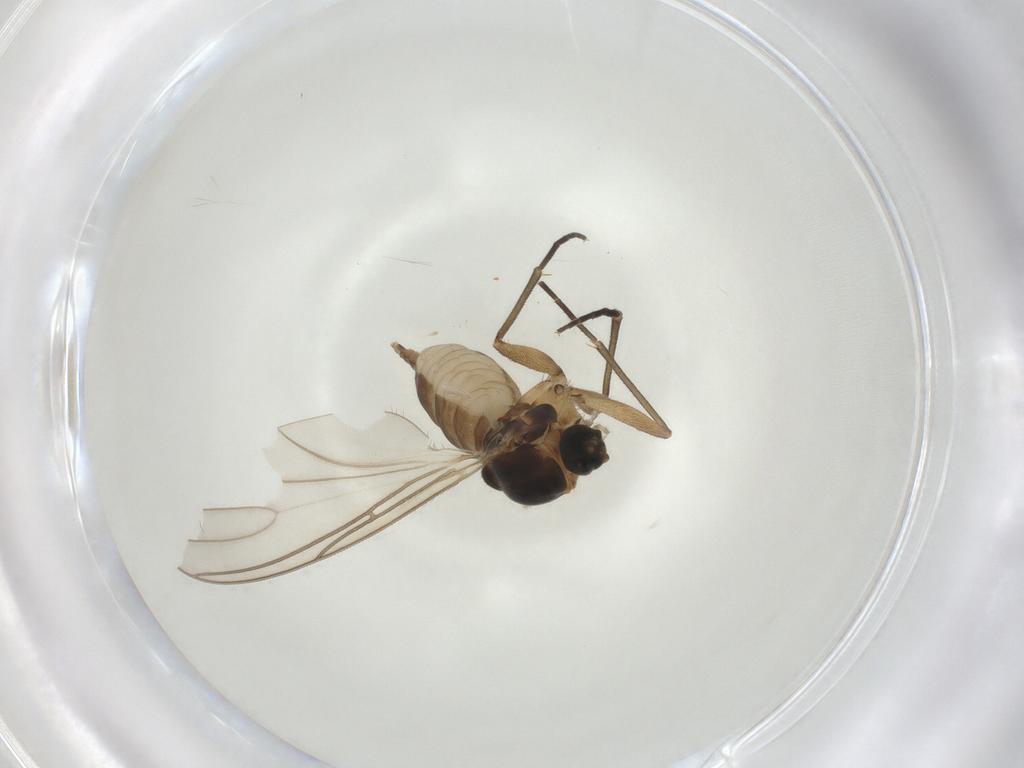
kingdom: Animalia
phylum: Arthropoda
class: Insecta
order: Diptera
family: Sciaridae
